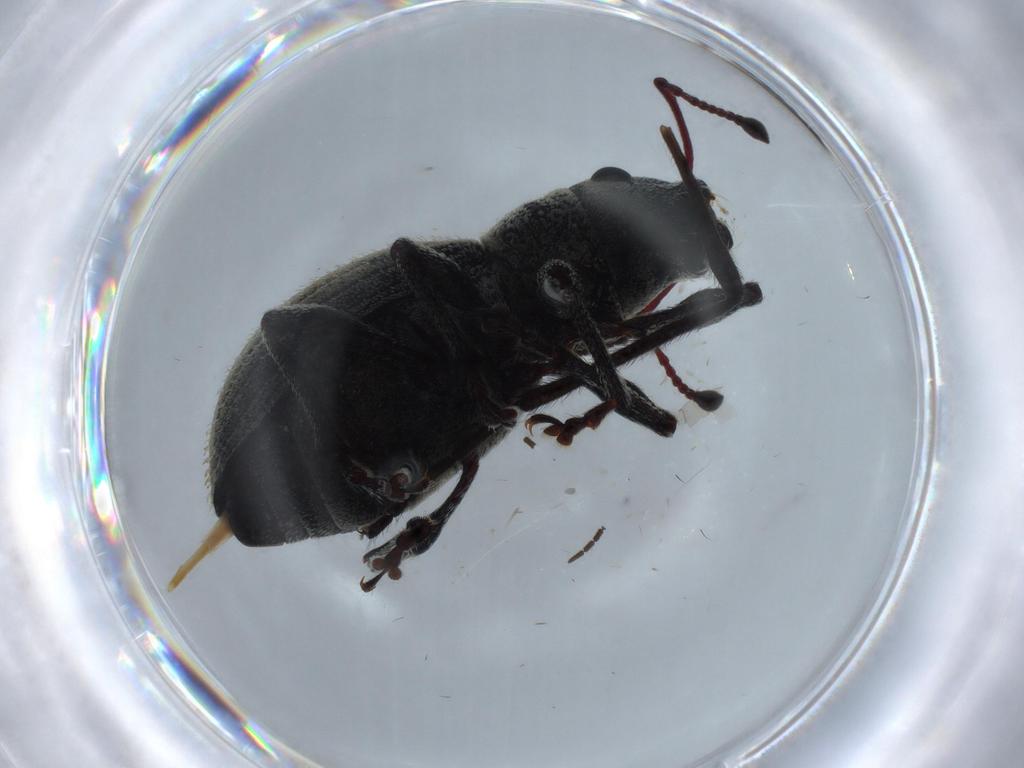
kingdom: Animalia
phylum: Arthropoda
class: Insecta
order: Coleoptera
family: Curculionidae
